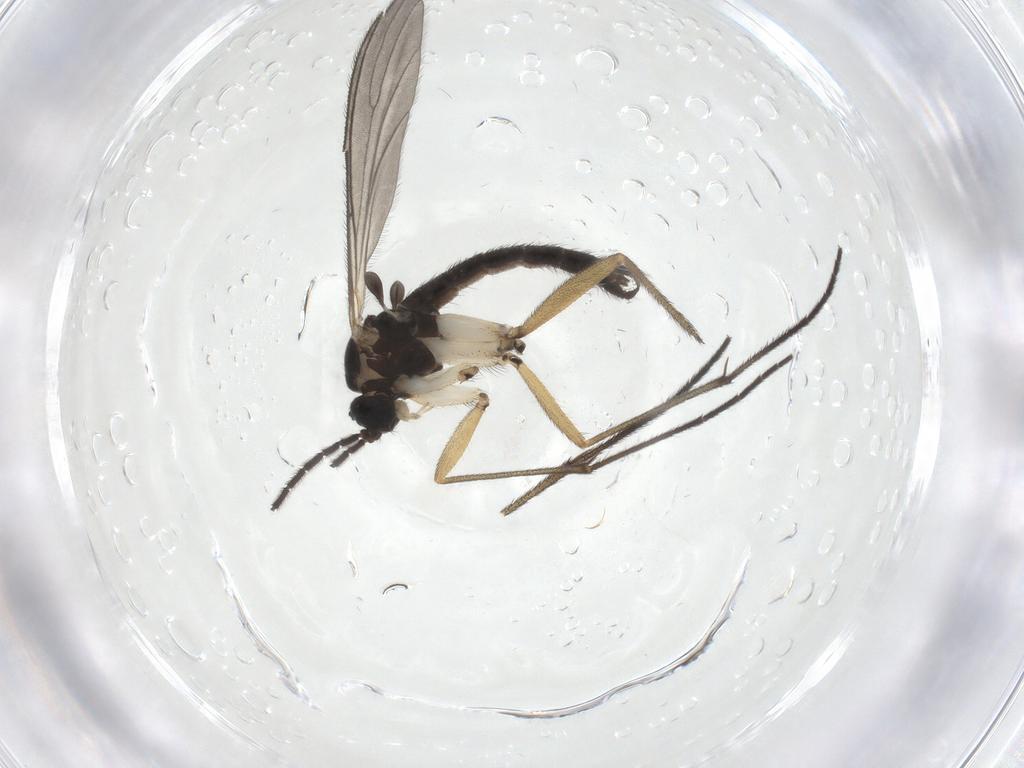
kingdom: Animalia
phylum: Arthropoda
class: Insecta
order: Diptera
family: Sciaridae
